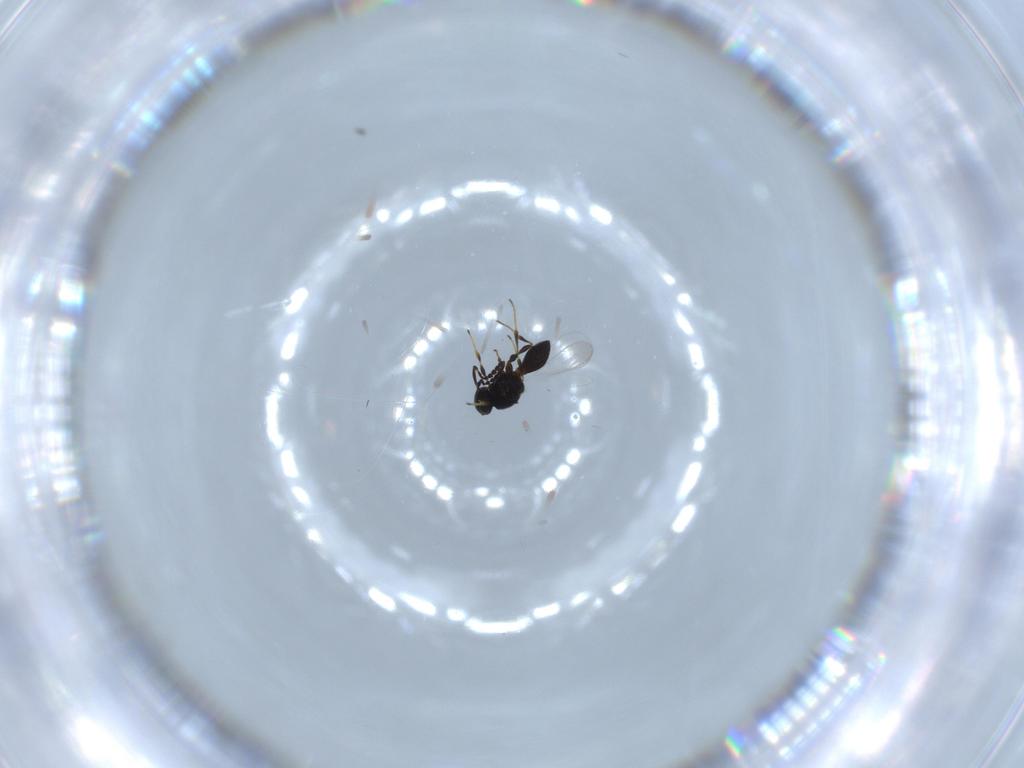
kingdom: Animalia
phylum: Arthropoda
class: Insecta
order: Hymenoptera
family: Platygastridae
